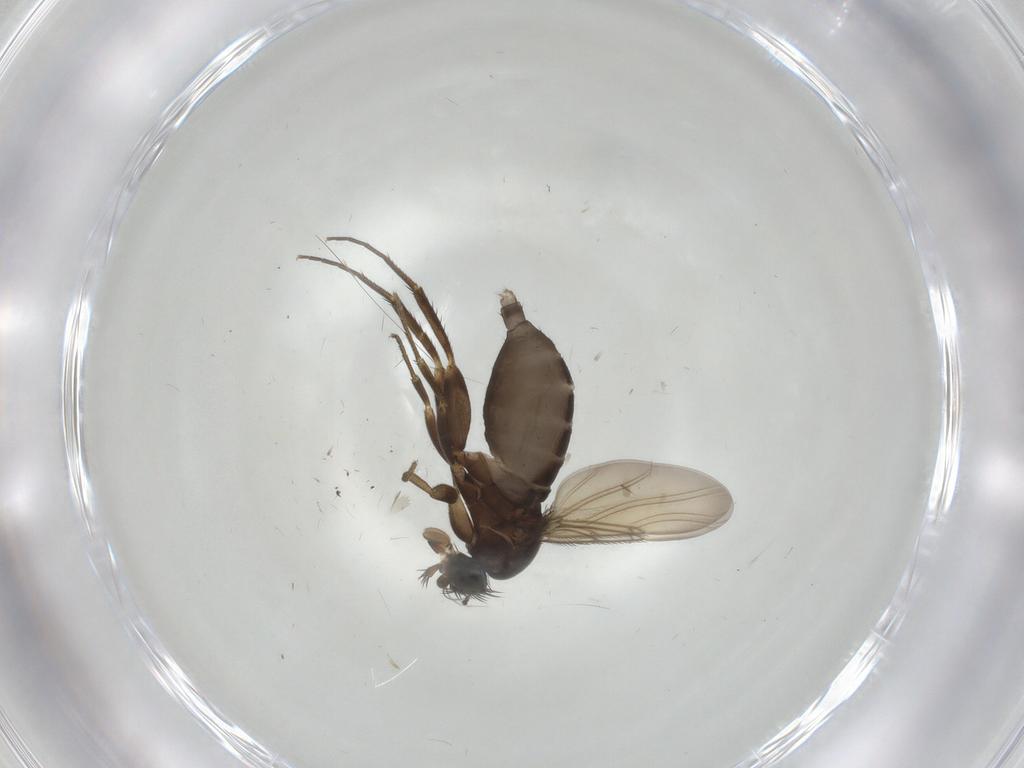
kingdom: Animalia
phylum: Arthropoda
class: Insecta
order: Diptera
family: Phoridae
